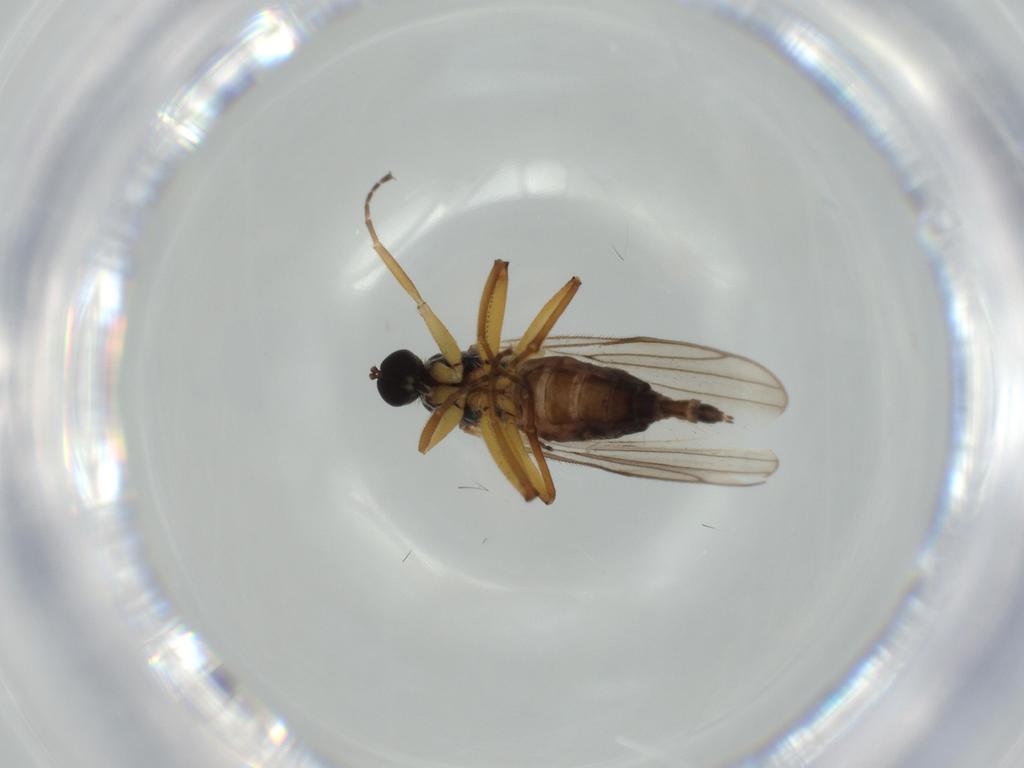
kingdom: Animalia
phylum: Arthropoda
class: Insecta
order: Diptera
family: Hybotidae
